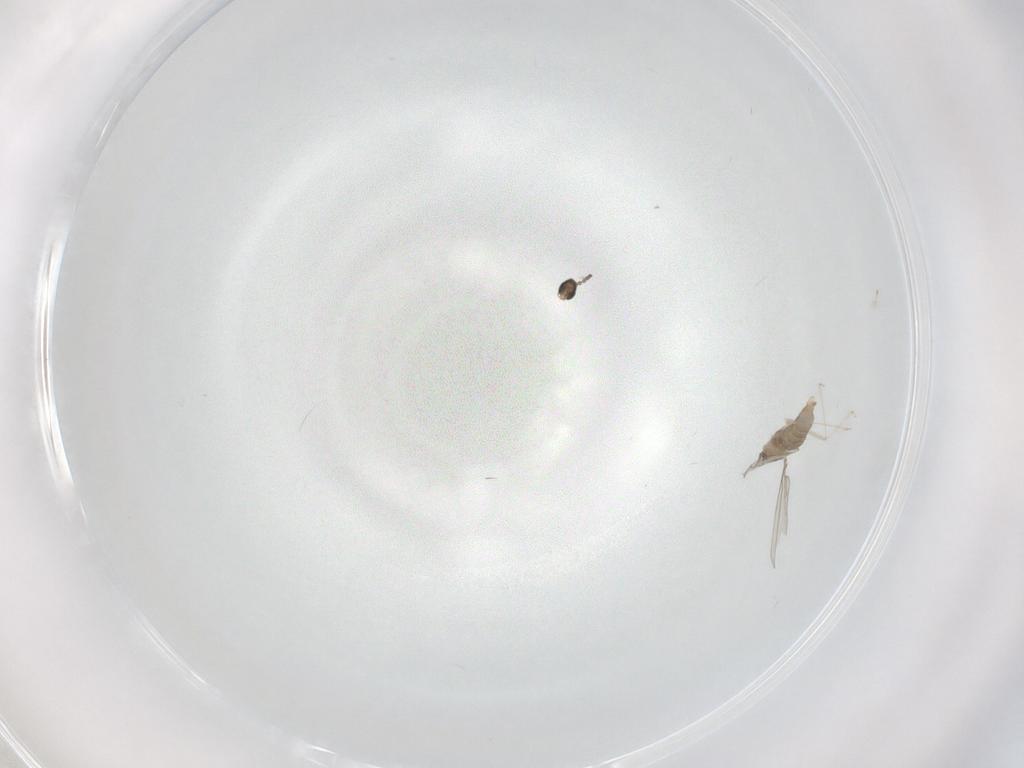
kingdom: Animalia
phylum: Arthropoda
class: Insecta
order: Diptera
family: Cecidomyiidae
